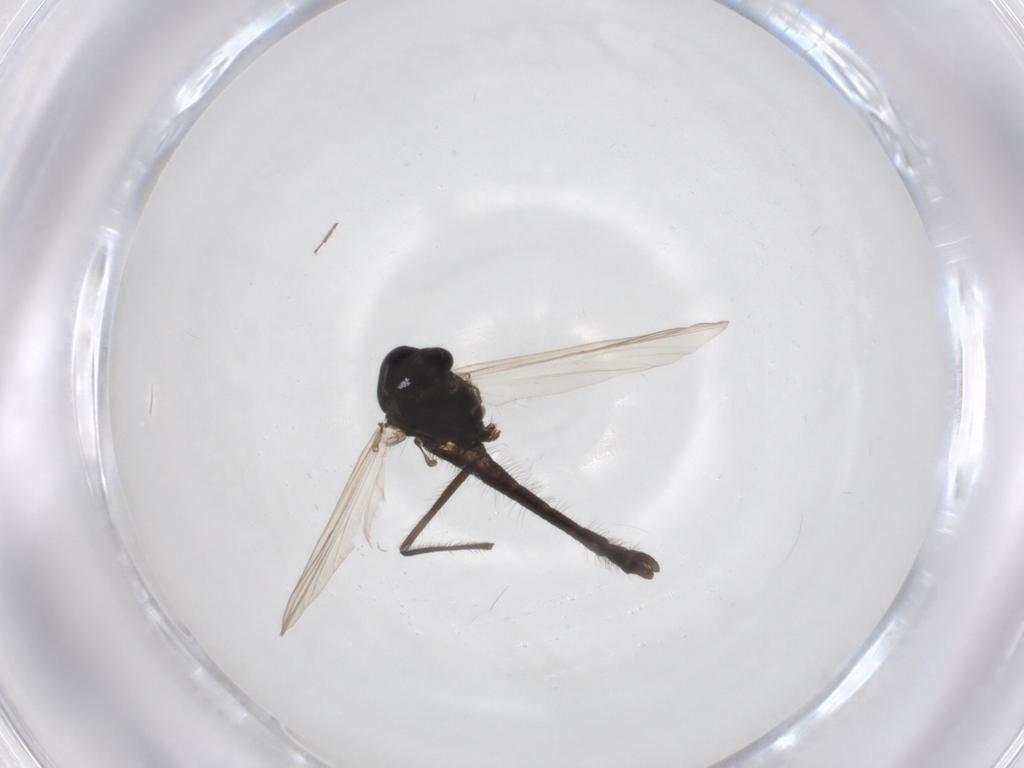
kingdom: Animalia
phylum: Arthropoda
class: Insecta
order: Diptera
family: Chironomidae
